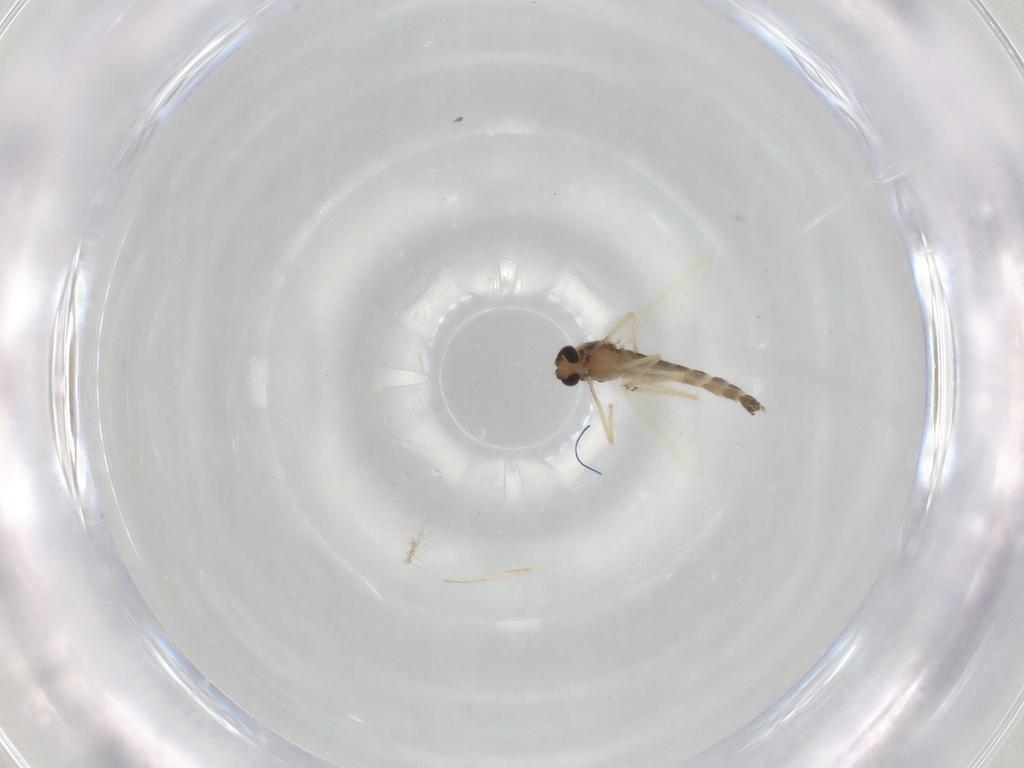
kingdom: Animalia
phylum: Arthropoda
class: Insecta
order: Diptera
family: Chironomidae
